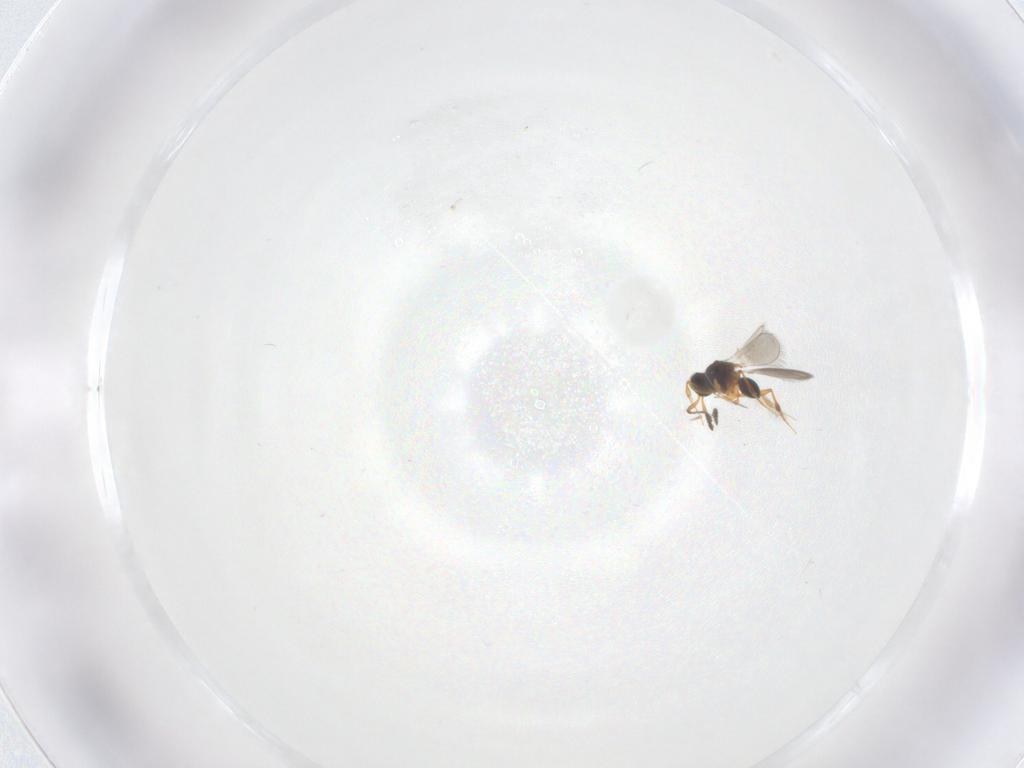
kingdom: Animalia
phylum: Arthropoda
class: Insecta
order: Hymenoptera
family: Platygastridae
